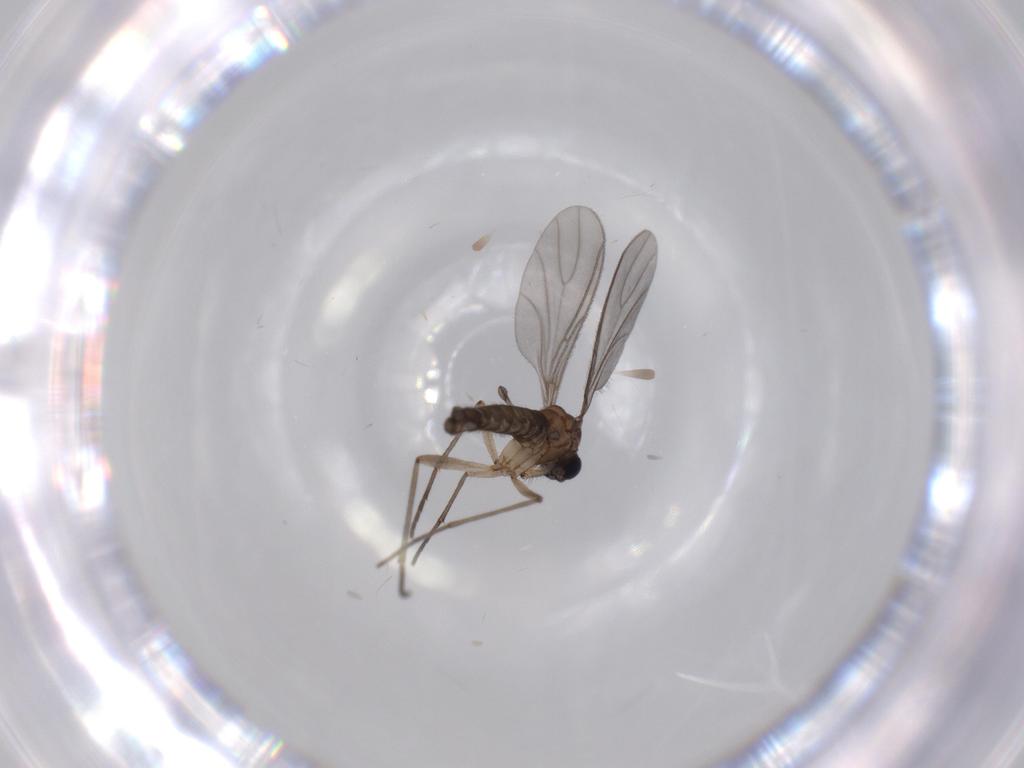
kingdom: Animalia
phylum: Arthropoda
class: Insecta
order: Diptera
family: Sciaridae
